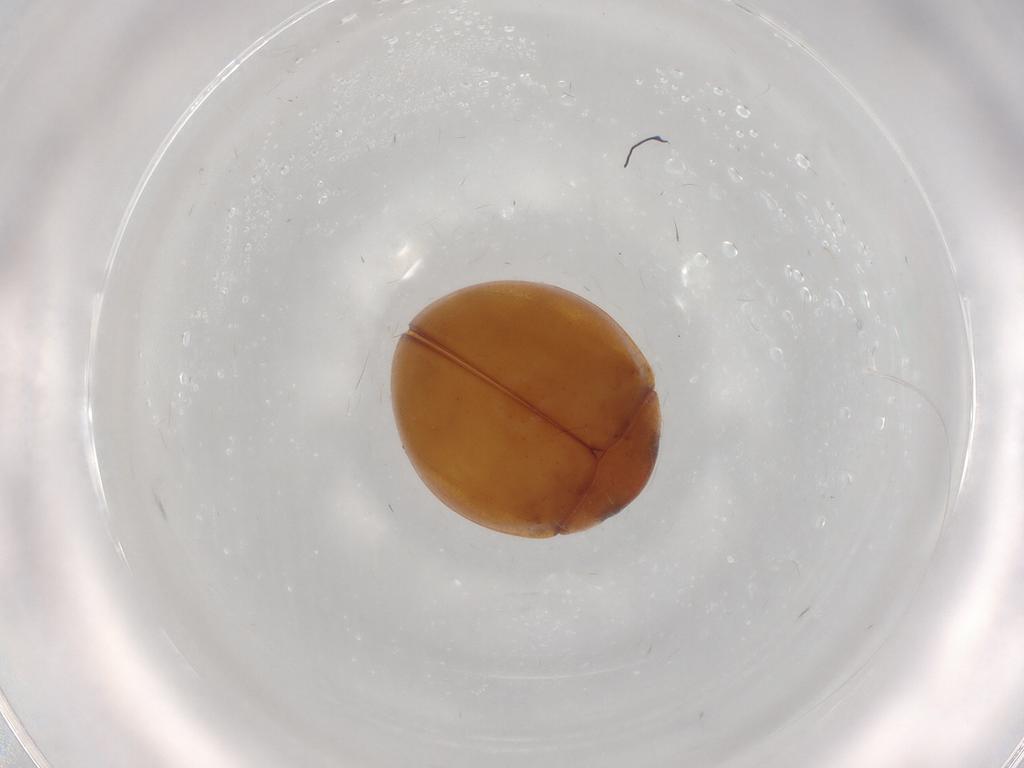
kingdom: Animalia
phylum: Arthropoda
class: Insecta
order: Coleoptera
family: Coccinellidae
